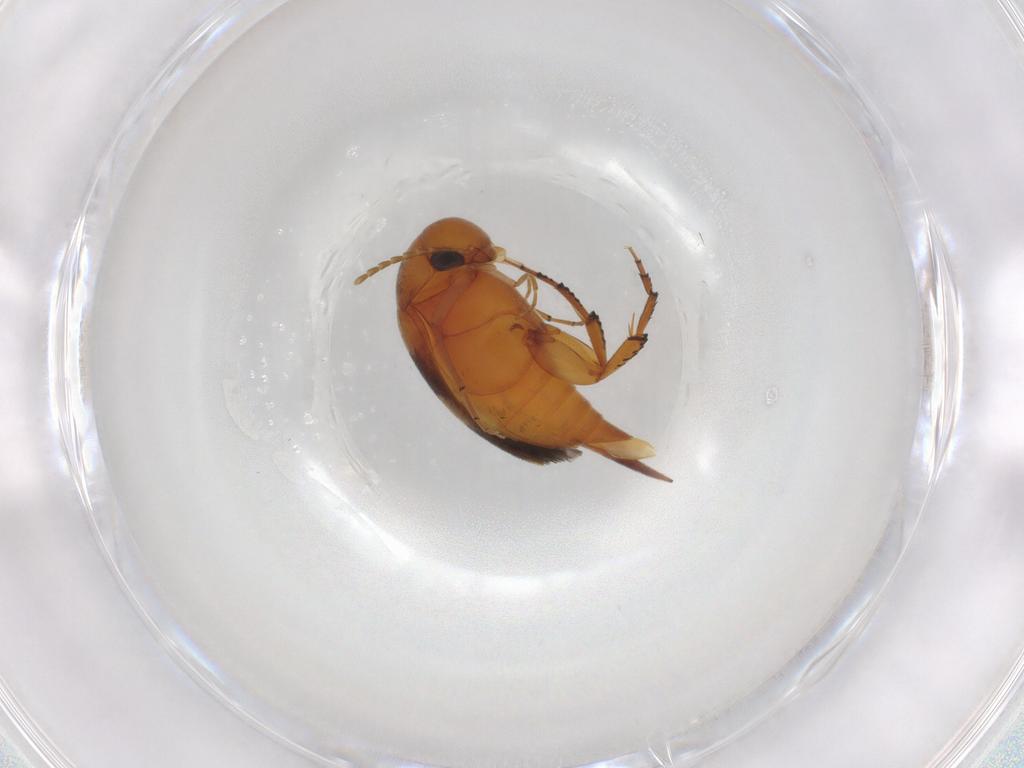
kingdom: Animalia
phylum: Arthropoda
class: Insecta
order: Coleoptera
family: Mordellidae
